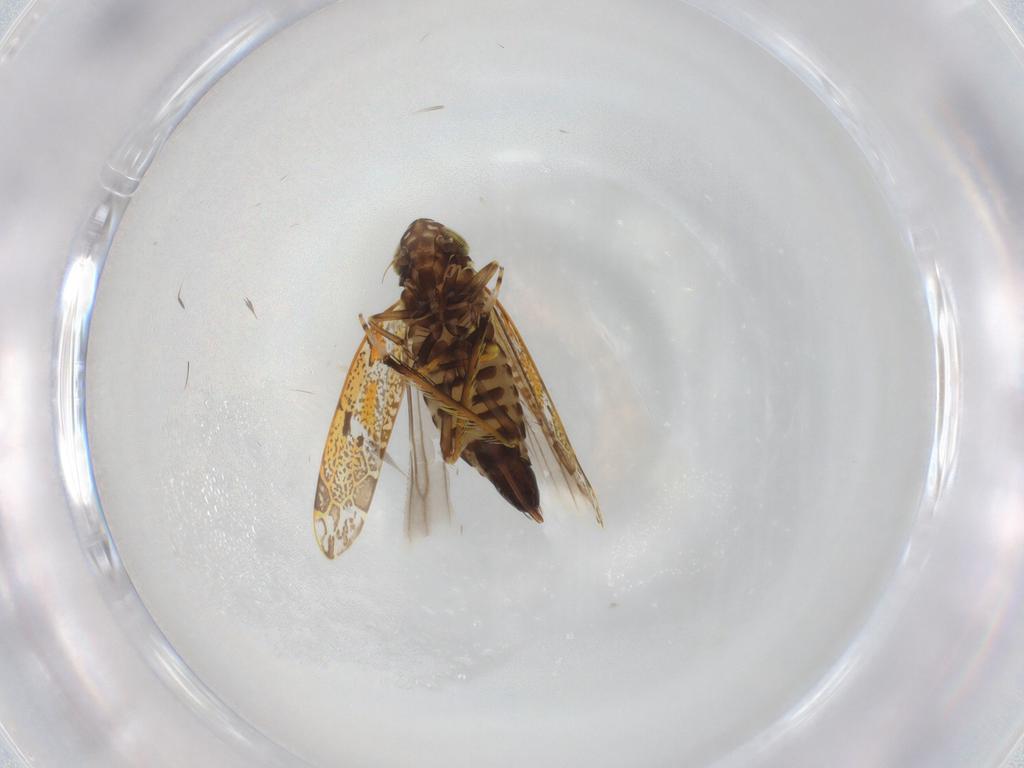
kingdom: Animalia
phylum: Arthropoda
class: Insecta
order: Hemiptera
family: Cicadellidae
